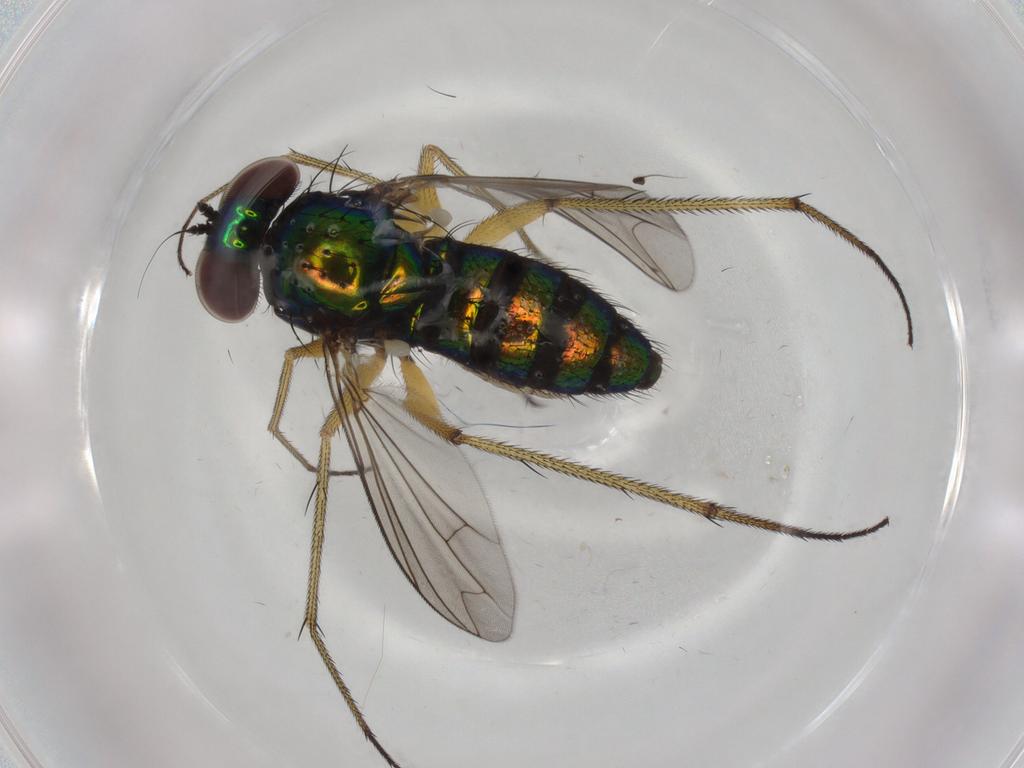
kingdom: Animalia
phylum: Arthropoda
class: Insecta
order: Diptera
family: Dolichopodidae
